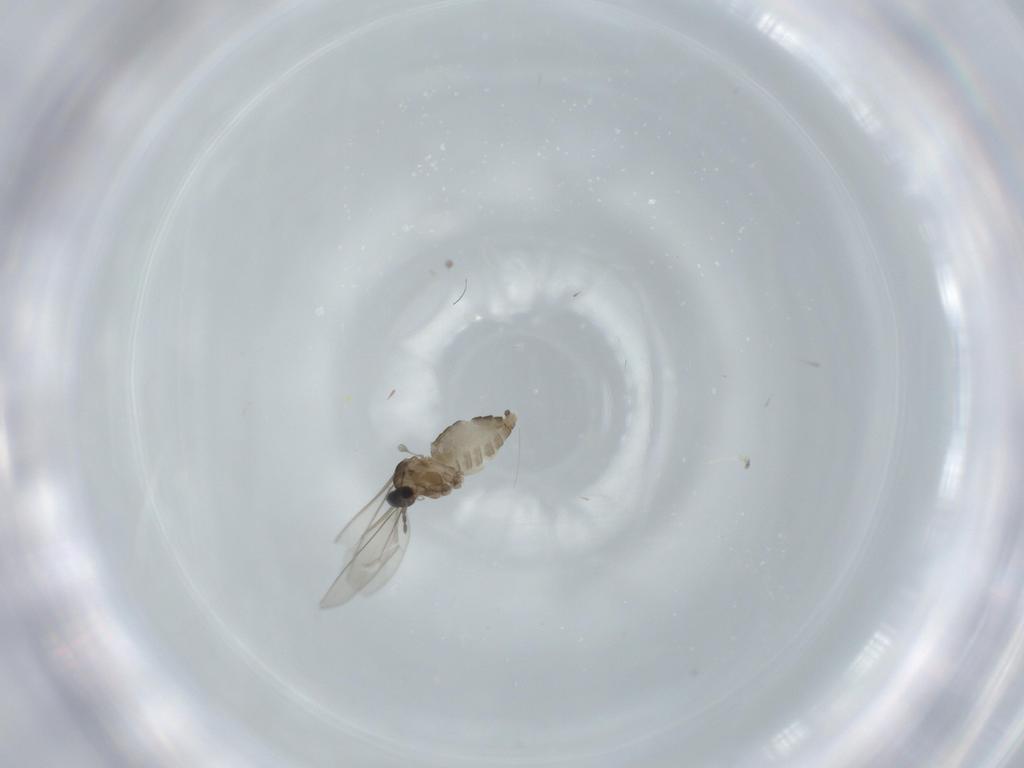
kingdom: Animalia
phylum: Arthropoda
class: Insecta
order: Diptera
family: Cecidomyiidae
